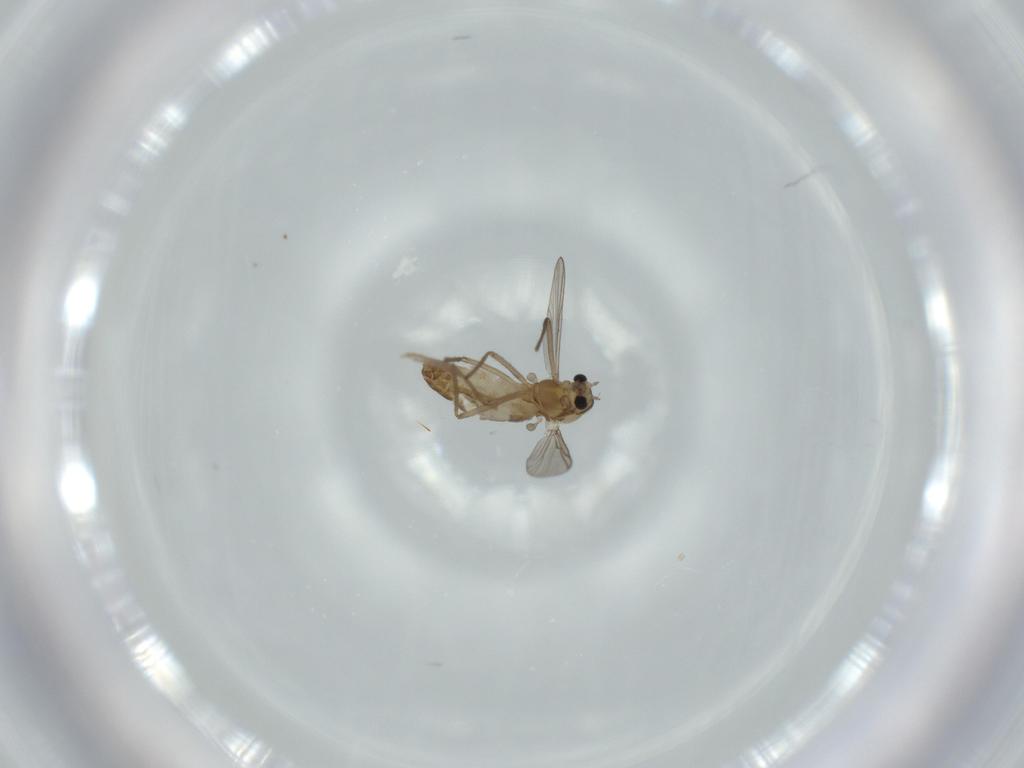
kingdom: Animalia
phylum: Arthropoda
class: Insecta
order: Diptera
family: Chironomidae
